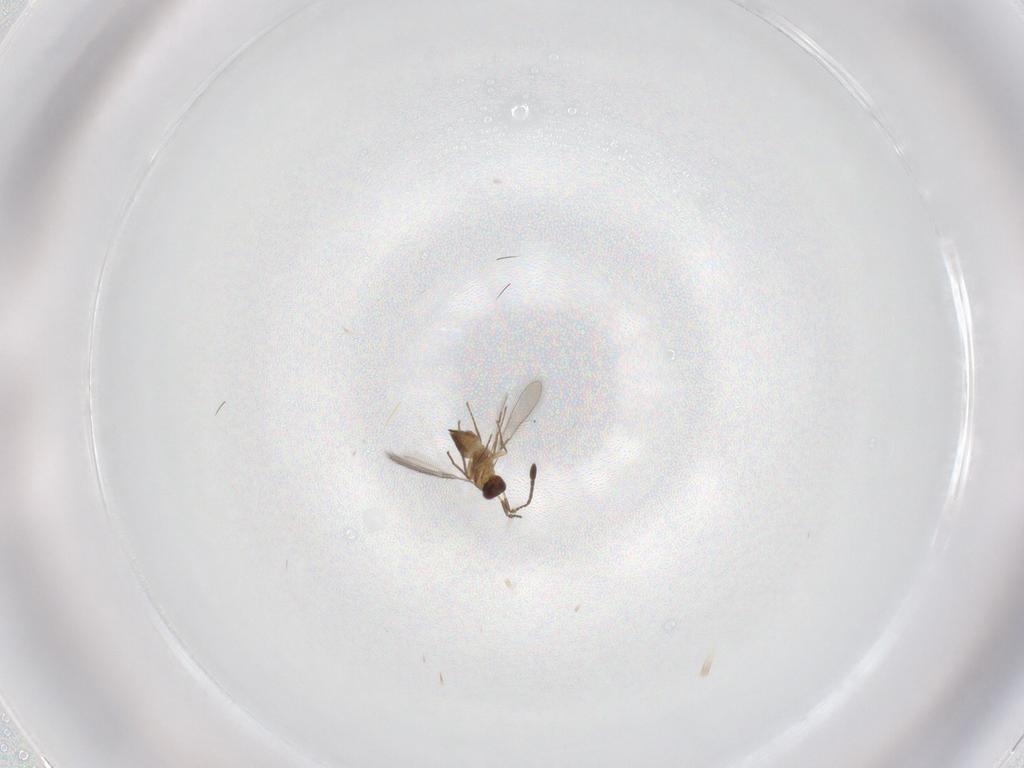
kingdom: Animalia
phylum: Arthropoda
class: Insecta
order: Hymenoptera
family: Mymaridae
